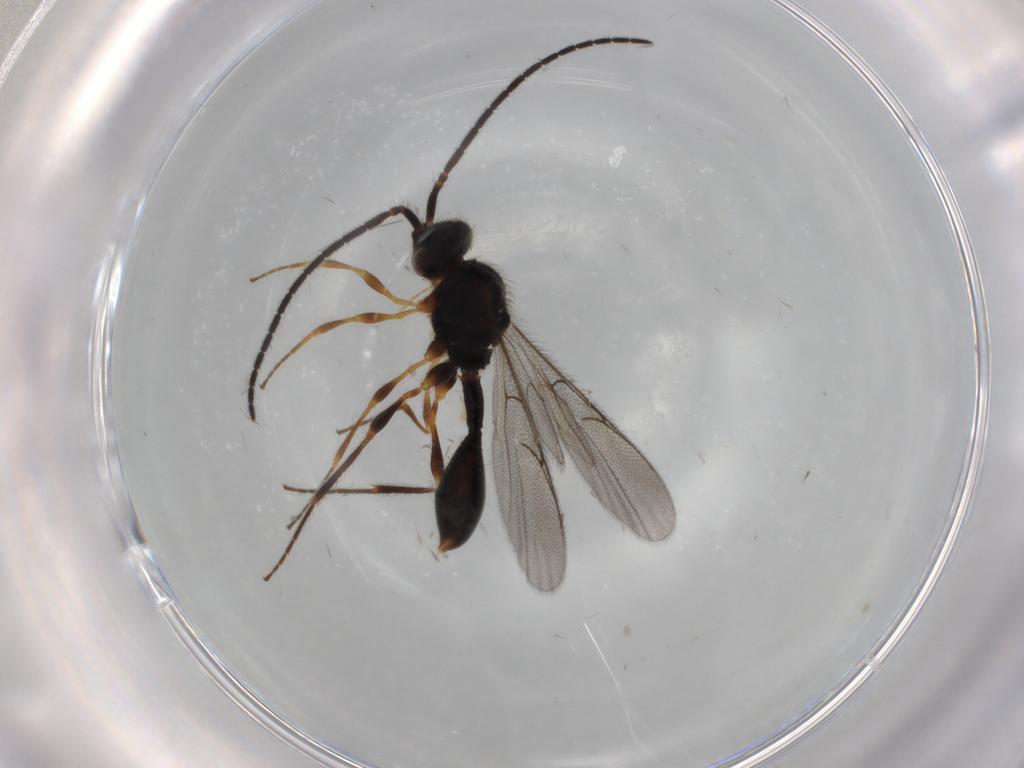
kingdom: Animalia
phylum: Arthropoda
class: Insecta
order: Hymenoptera
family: Diapriidae
